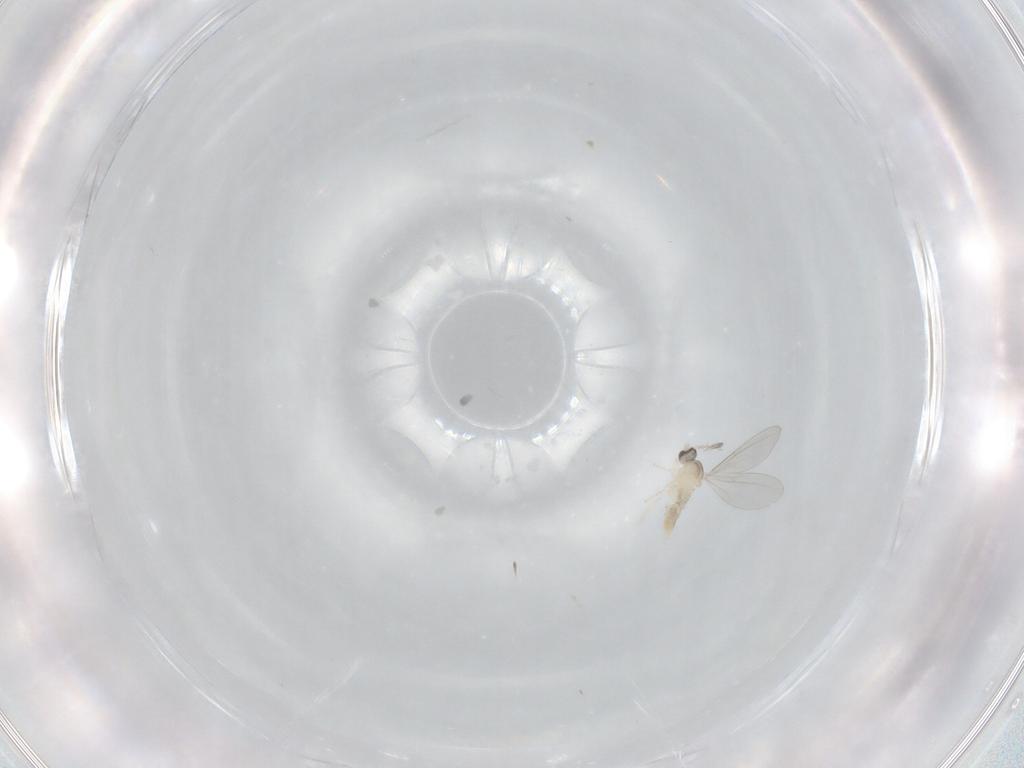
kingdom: Animalia
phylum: Arthropoda
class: Insecta
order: Diptera
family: Cecidomyiidae
